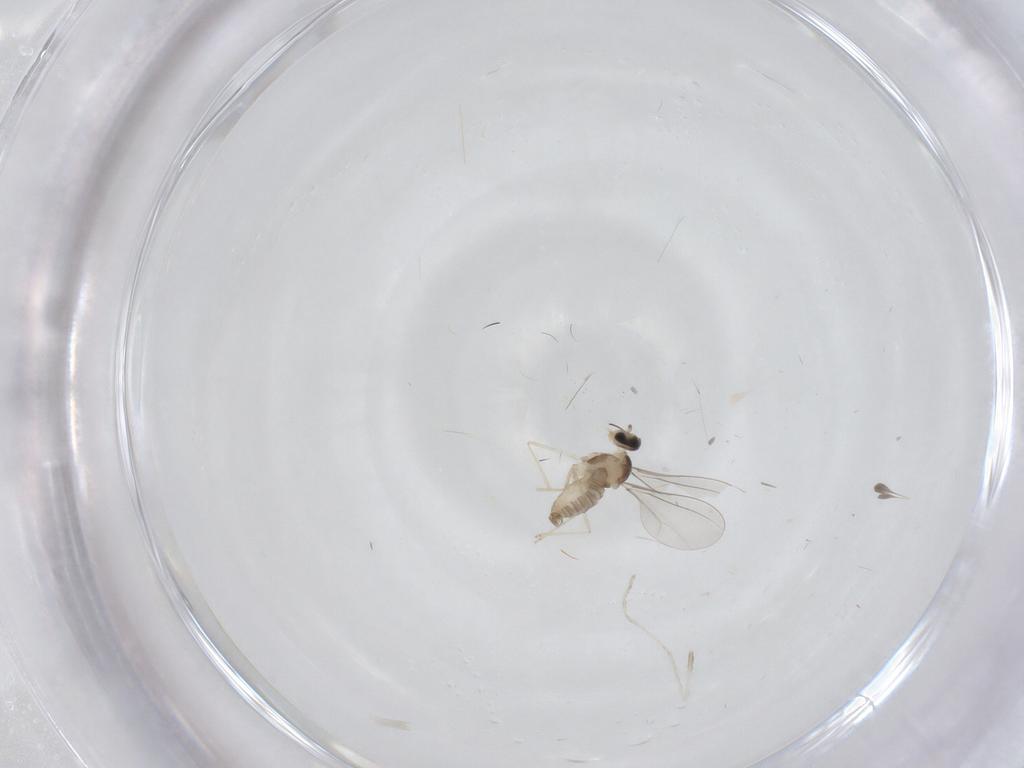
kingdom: Animalia
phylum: Arthropoda
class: Insecta
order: Diptera
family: Cecidomyiidae
